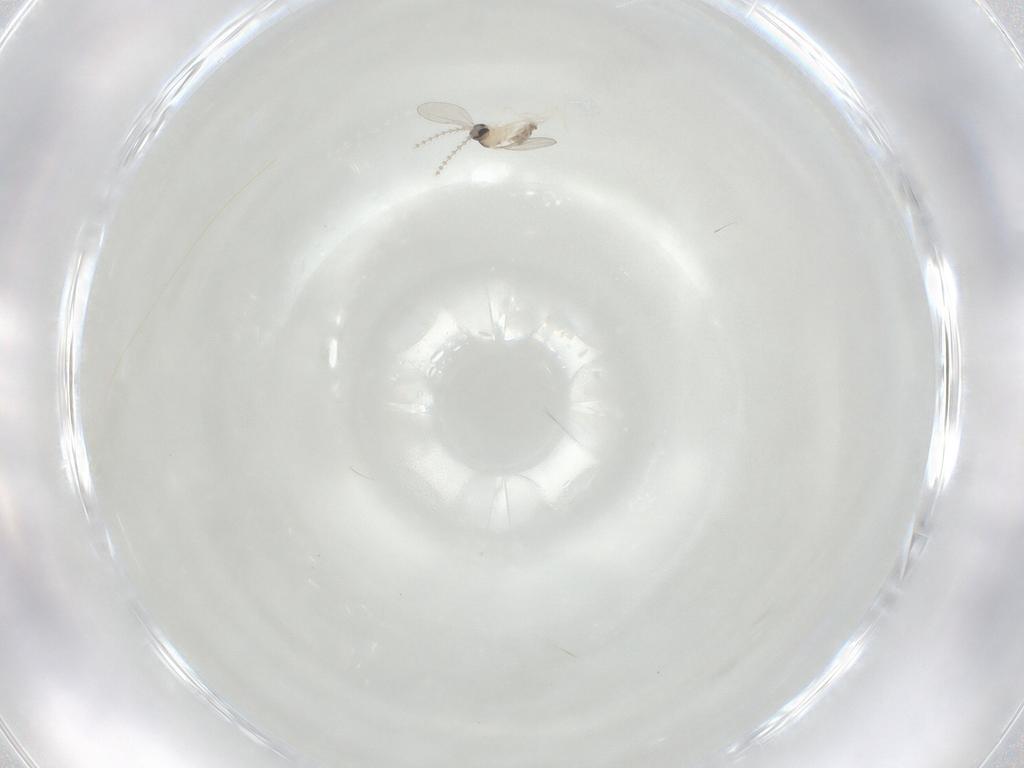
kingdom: Animalia
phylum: Arthropoda
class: Insecta
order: Diptera
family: Cecidomyiidae
